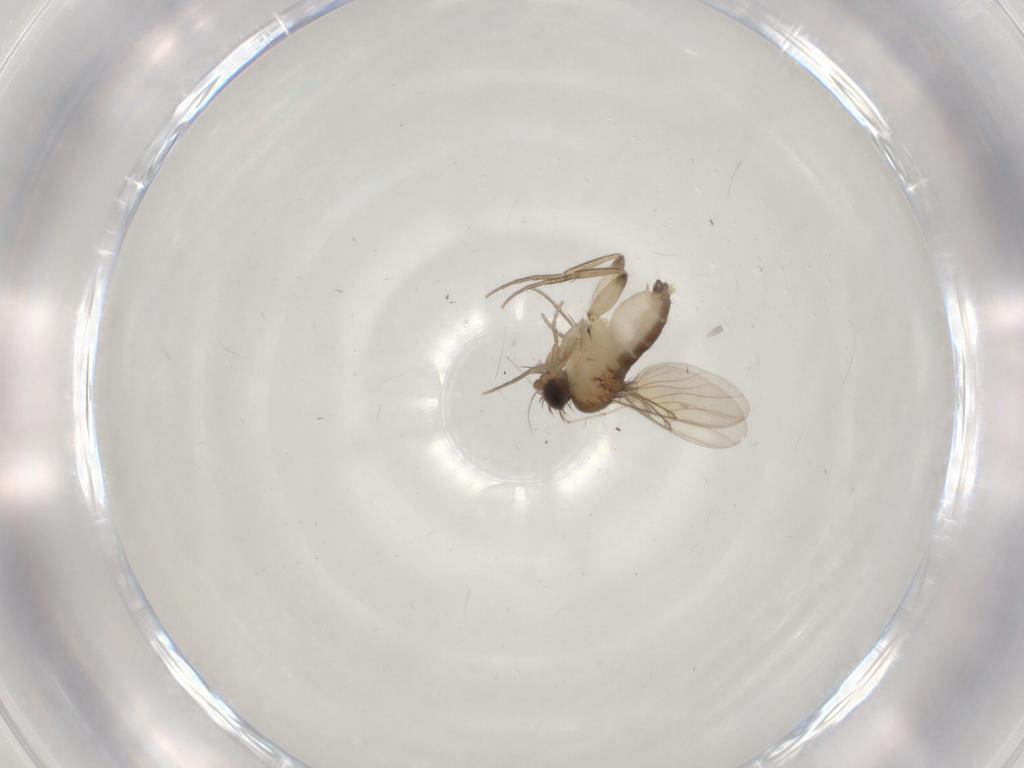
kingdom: Animalia
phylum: Arthropoda
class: Insecta
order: Diptera
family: Phoridae
